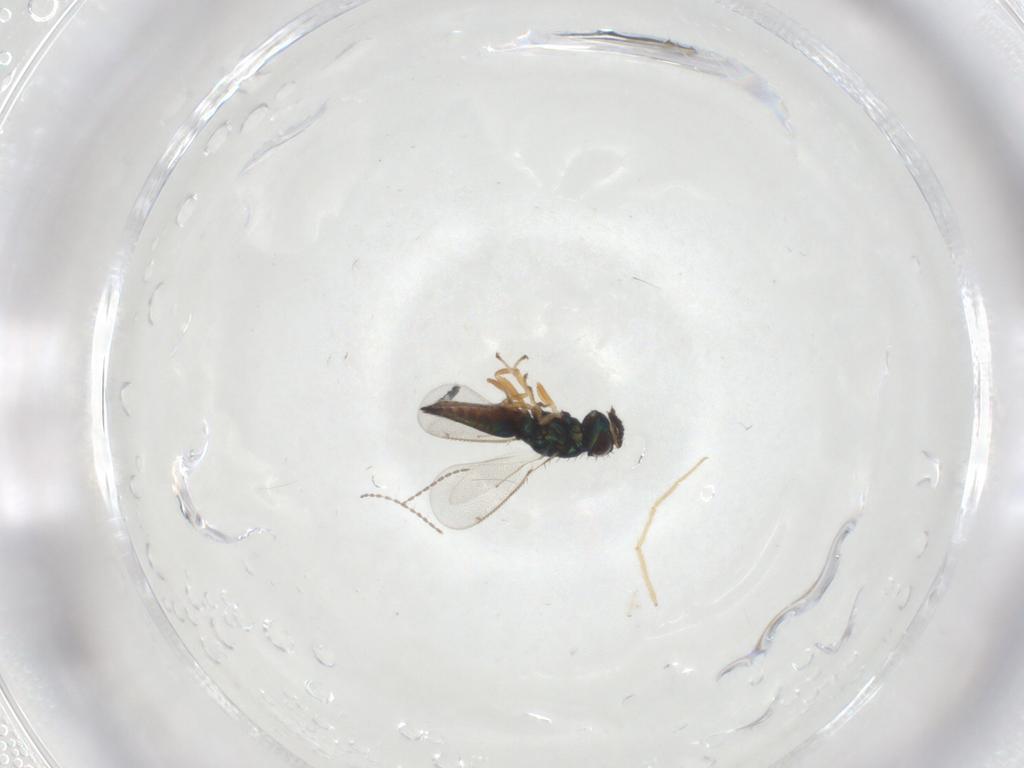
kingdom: Animalia
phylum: Arthropoda
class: Insecta
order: Hymenoptera
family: Eulophidae
